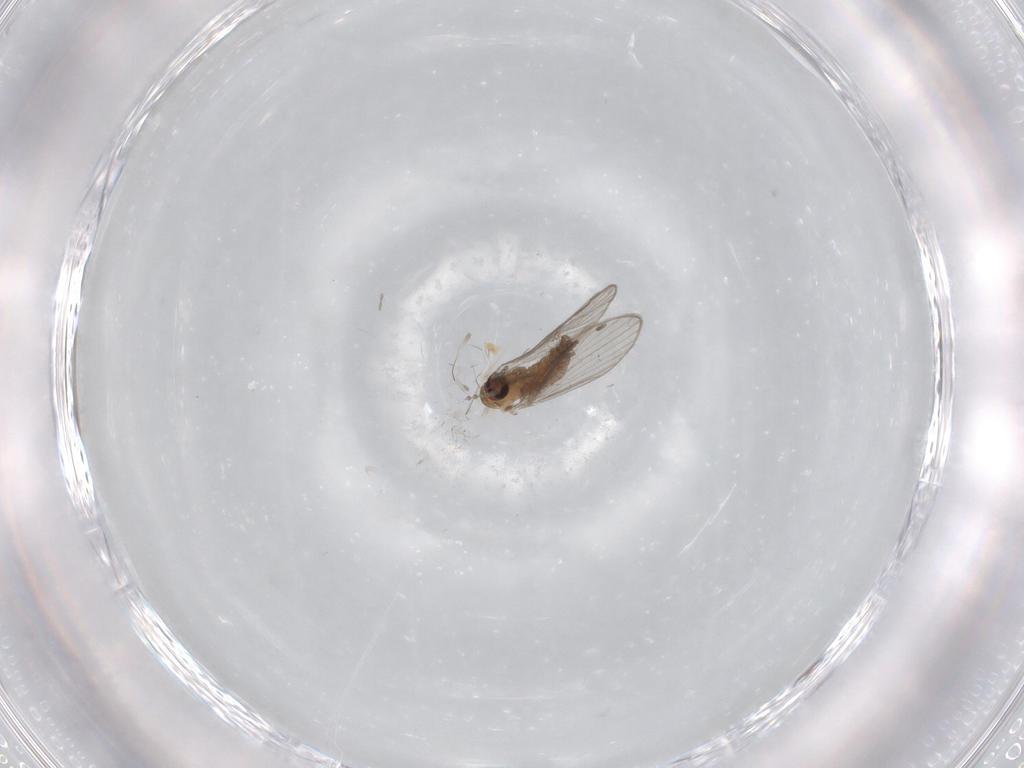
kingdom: Animalia
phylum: Arthropoda
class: Insecta
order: Diptera
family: Psychodidae
